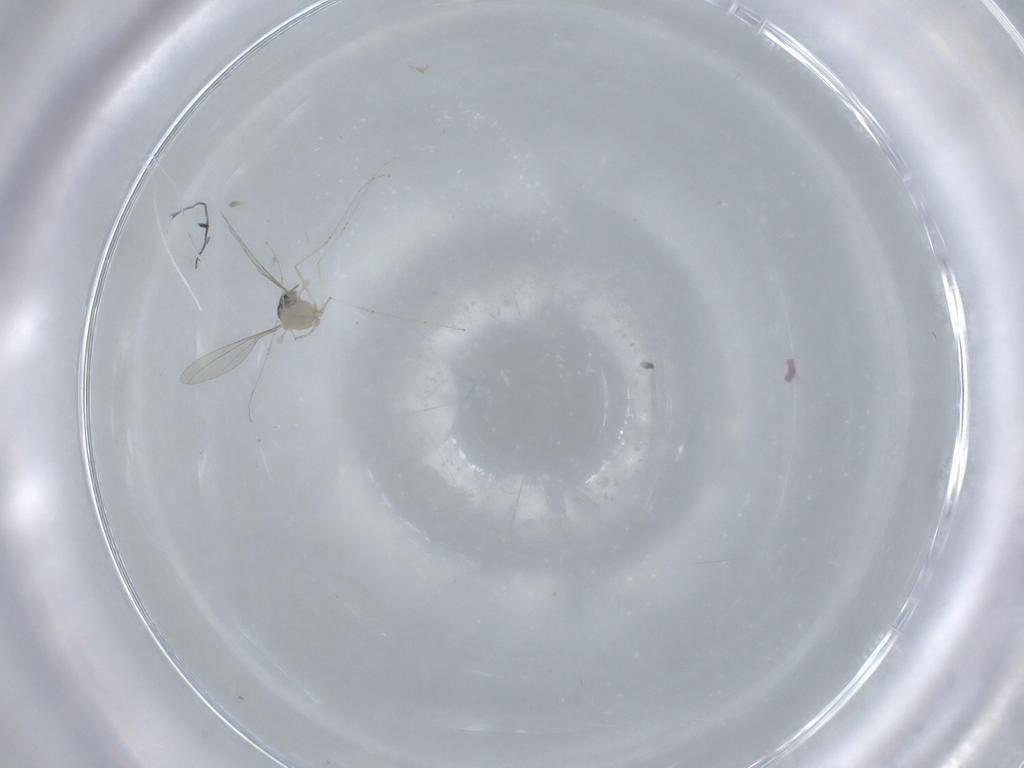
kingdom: Animalia
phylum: Arthropoda
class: Insecta
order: Diptera
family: Cecidomyiidae
